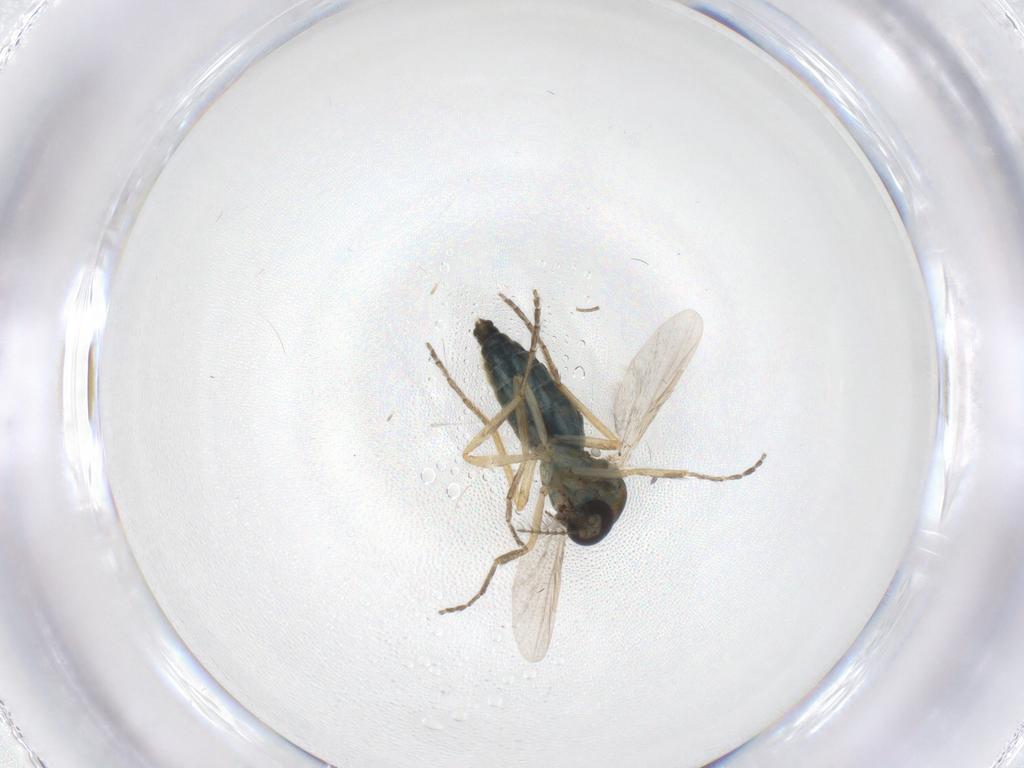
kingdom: Animalia
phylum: Arthropoda
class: Insecta
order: Diptera
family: Ceratopogonidae
